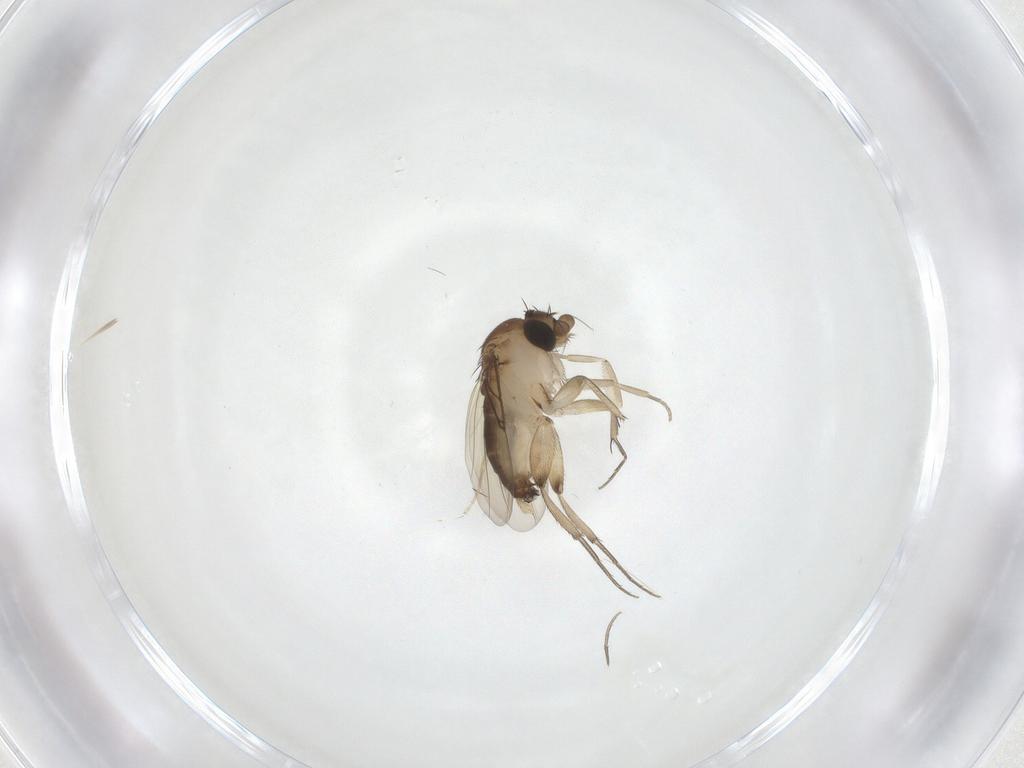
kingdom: Animalia
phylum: Arthropoda
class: Insecta
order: Diptera
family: Phoridae
